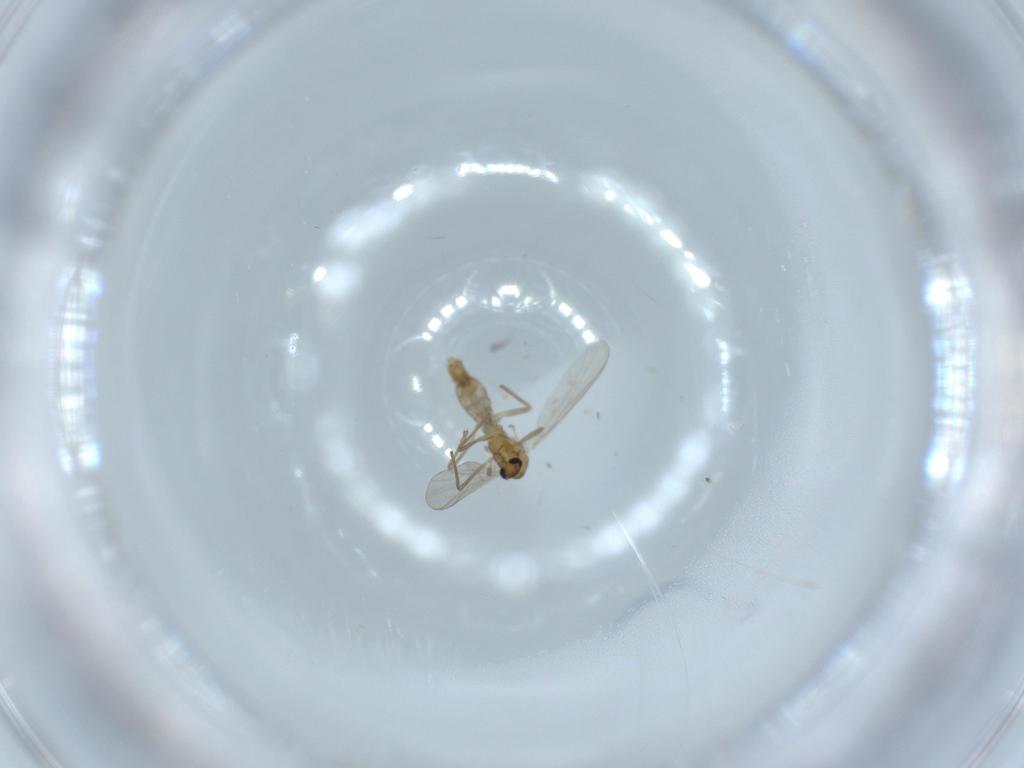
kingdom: Animalia
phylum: Arthropoda
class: Insecta
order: Diptera
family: Chironomidae
